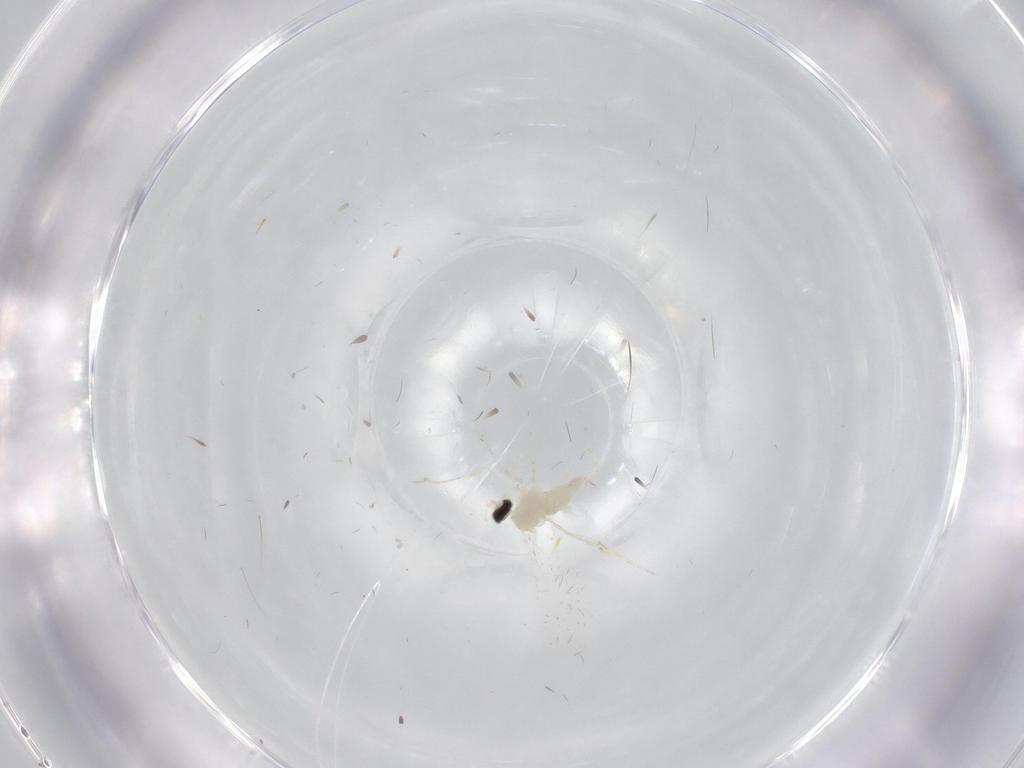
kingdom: Animalia
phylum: Arthropoda
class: Insecta
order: Diptera
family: Cecidomyiidae
